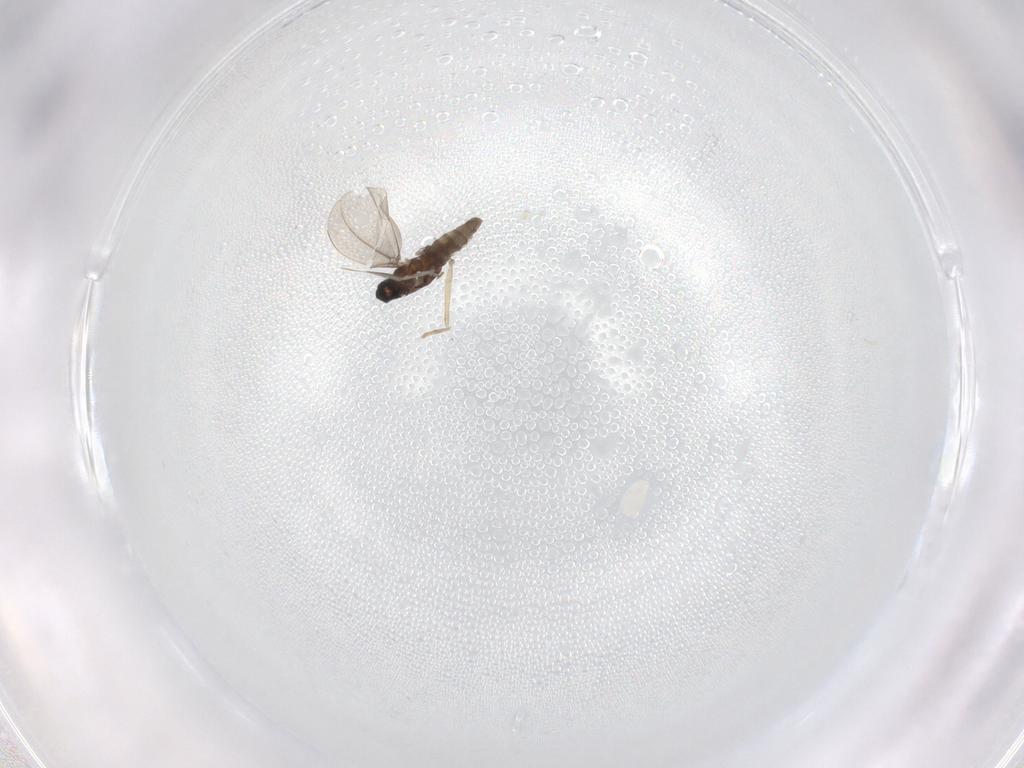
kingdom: Animalia
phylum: Arthropoda
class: Insecta
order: Diptera
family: Cecidomyiidae
